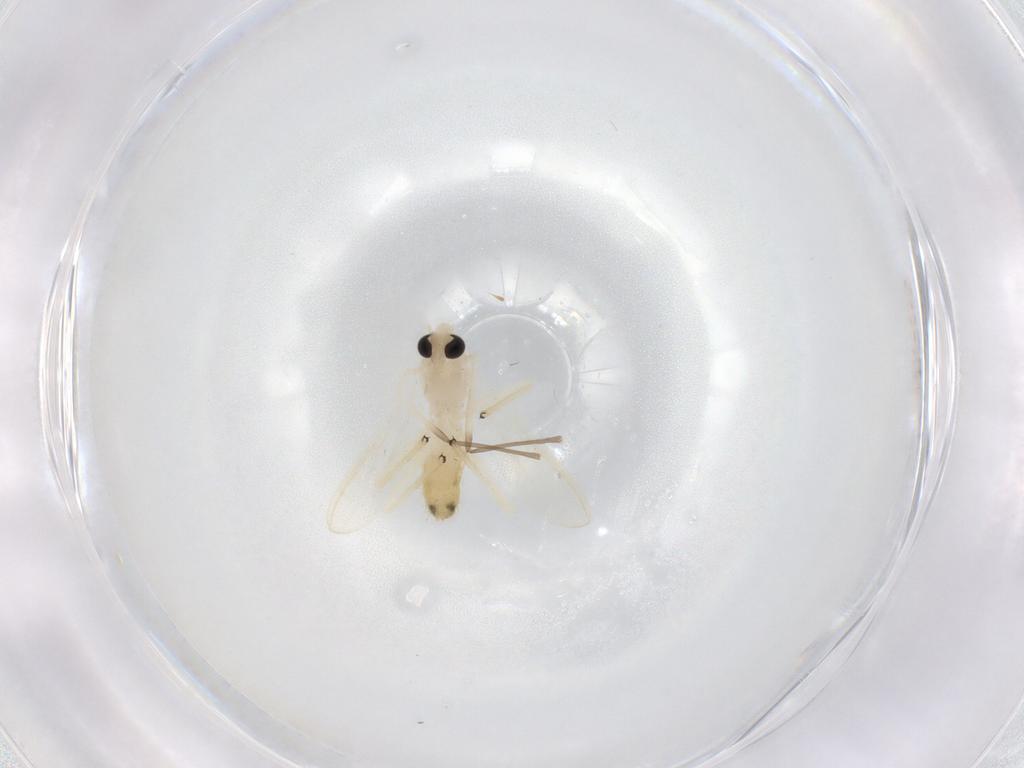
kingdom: Animalia
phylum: Arthropoda
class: Insecta
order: Diptera
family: Chironomidae
